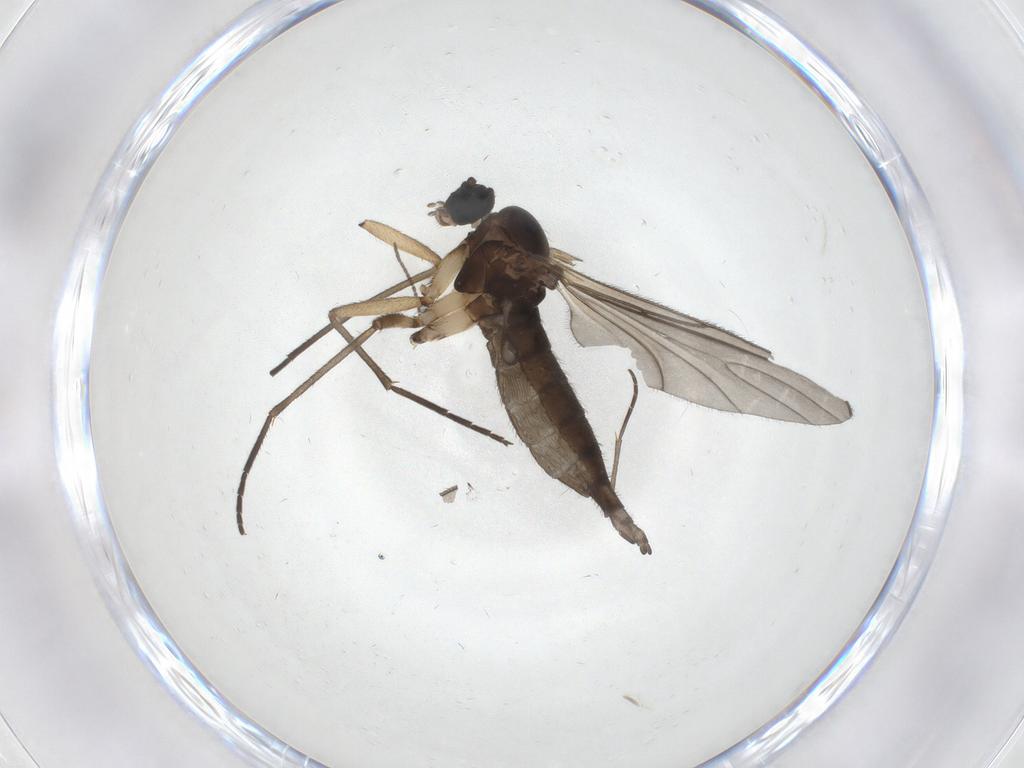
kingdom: Animalia
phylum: Arthropoda
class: Insecta
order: Diptera
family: Sciaridae
